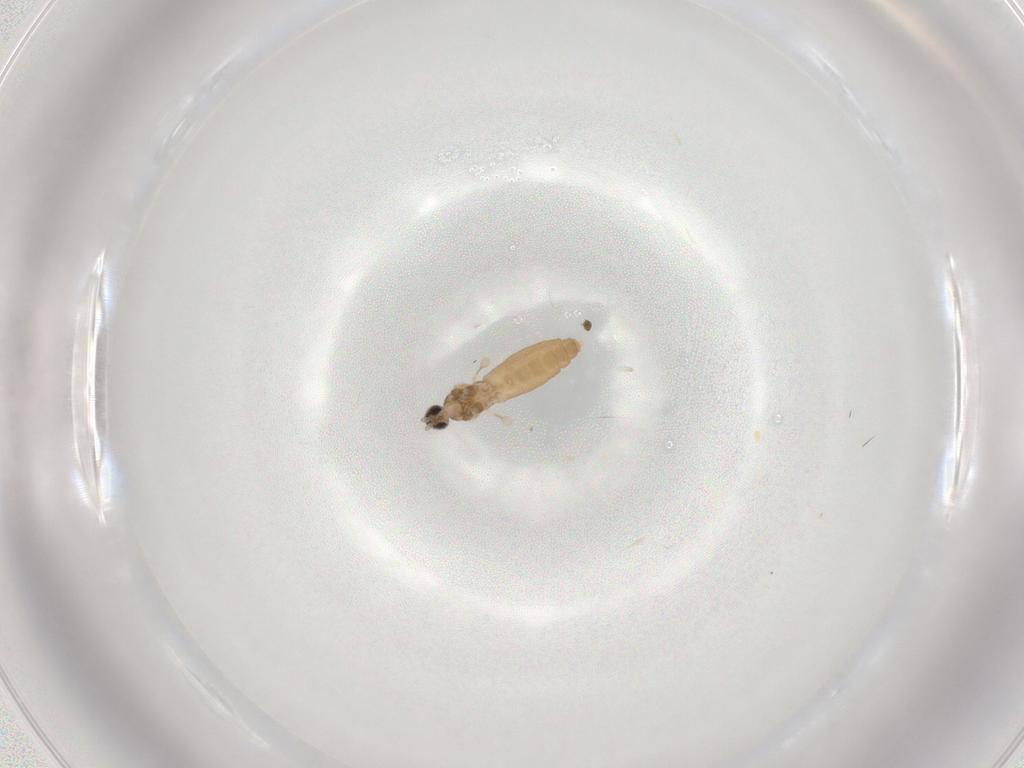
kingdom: Animalia
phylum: Arthropoda
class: Insecta
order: Diptera
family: Cecidomyiidae
